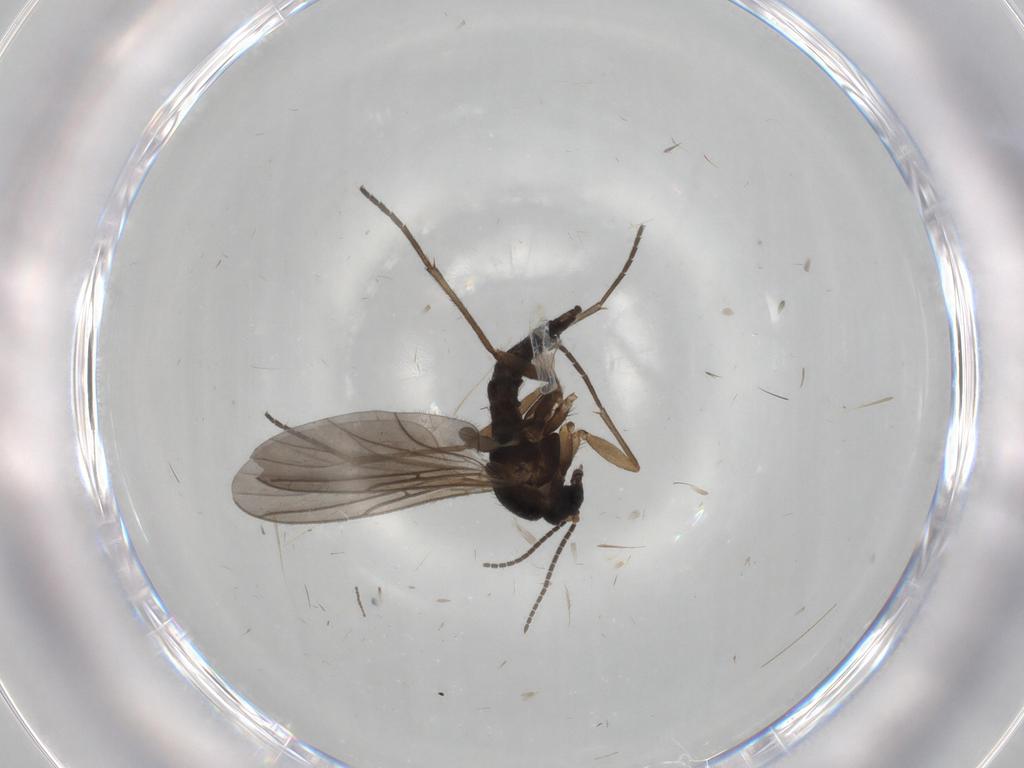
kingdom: Animalia
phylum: Arthropoda
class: Insecta
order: Diptera
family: Sciaridae
